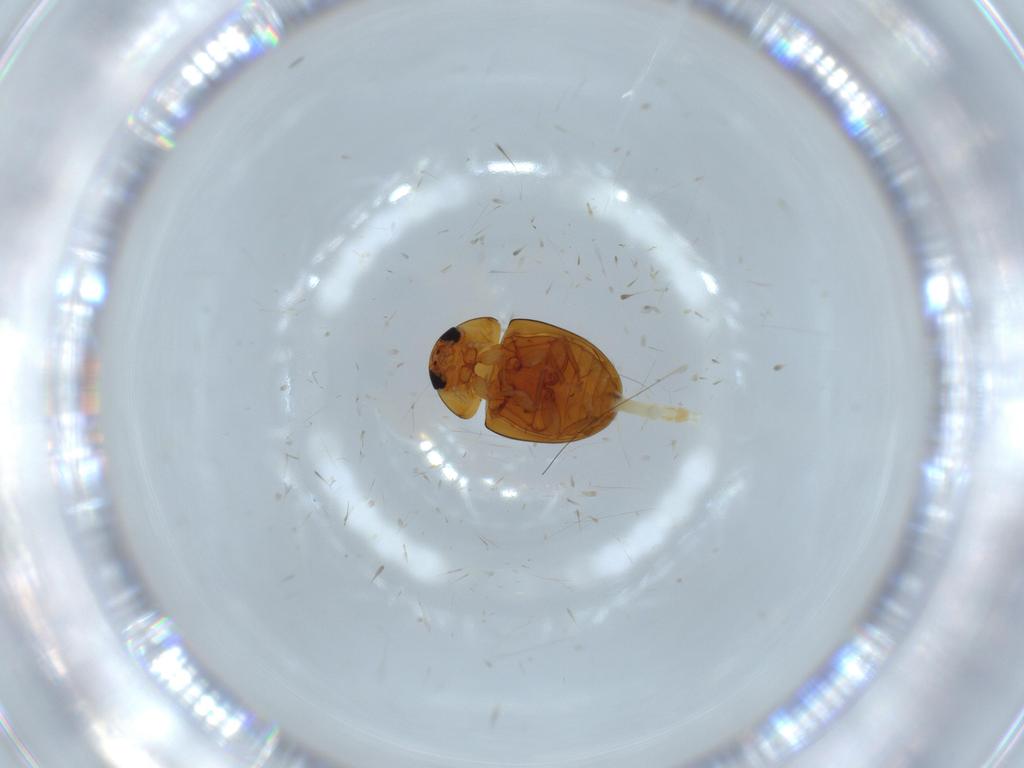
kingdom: Animalia
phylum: Arthropoda
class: Insecta
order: Coleoptera
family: Phalacridae
